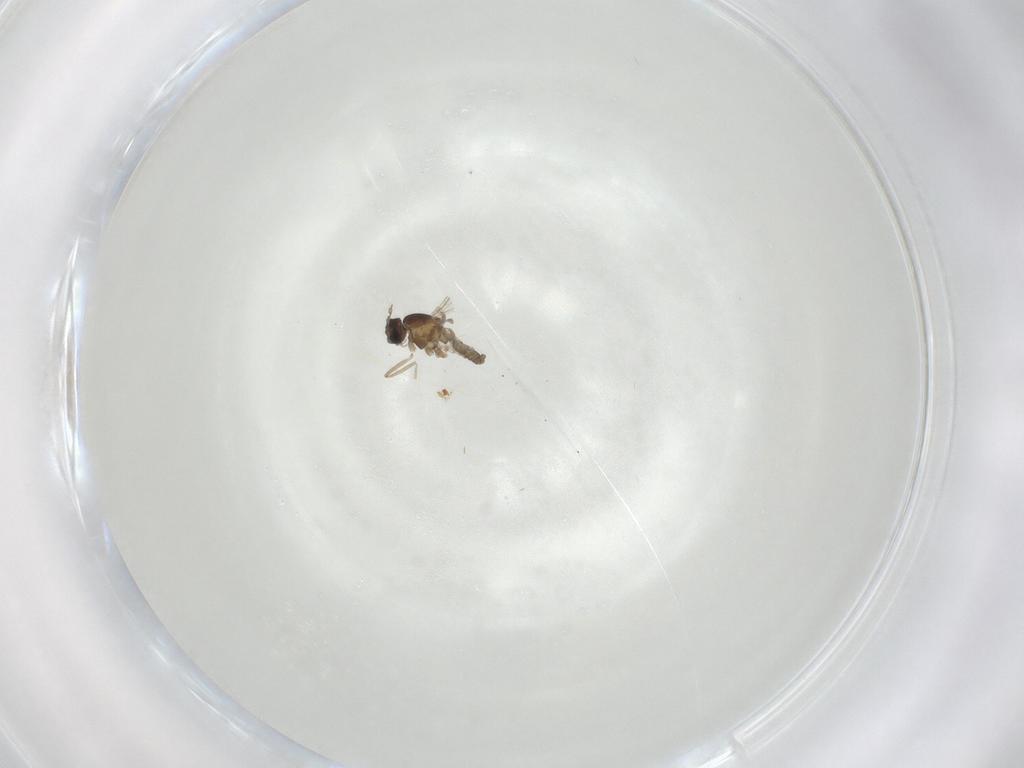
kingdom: Animalia
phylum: Arthropoda
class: Insecta
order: Diptera
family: Cecidomyiidae
